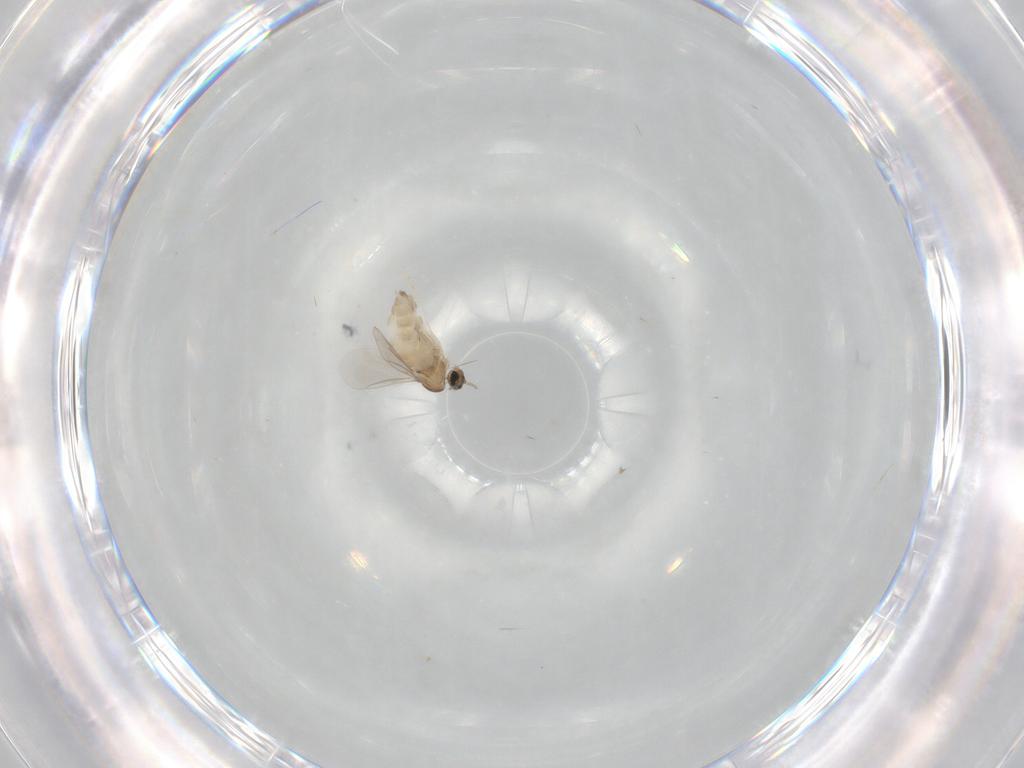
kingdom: Animalia
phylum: Arthropoda
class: Insecta
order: Diptera
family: Cecidomyiidae
